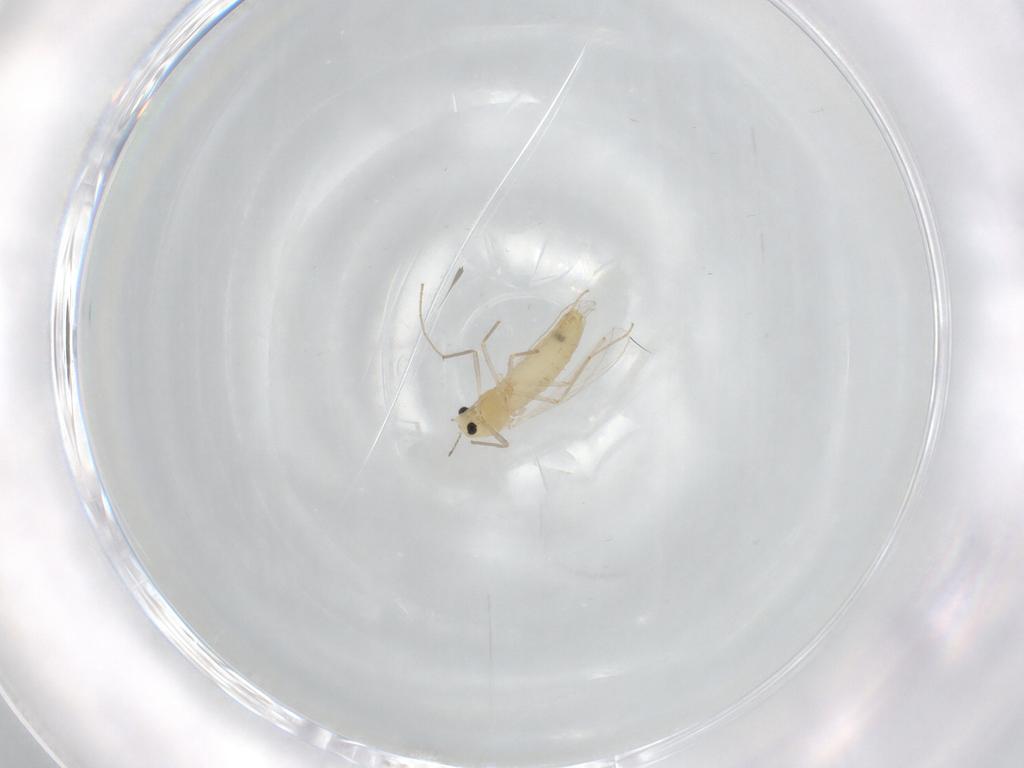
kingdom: Animalia
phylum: Arthropoda
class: Insecta
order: Diptera
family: Chironomidae
